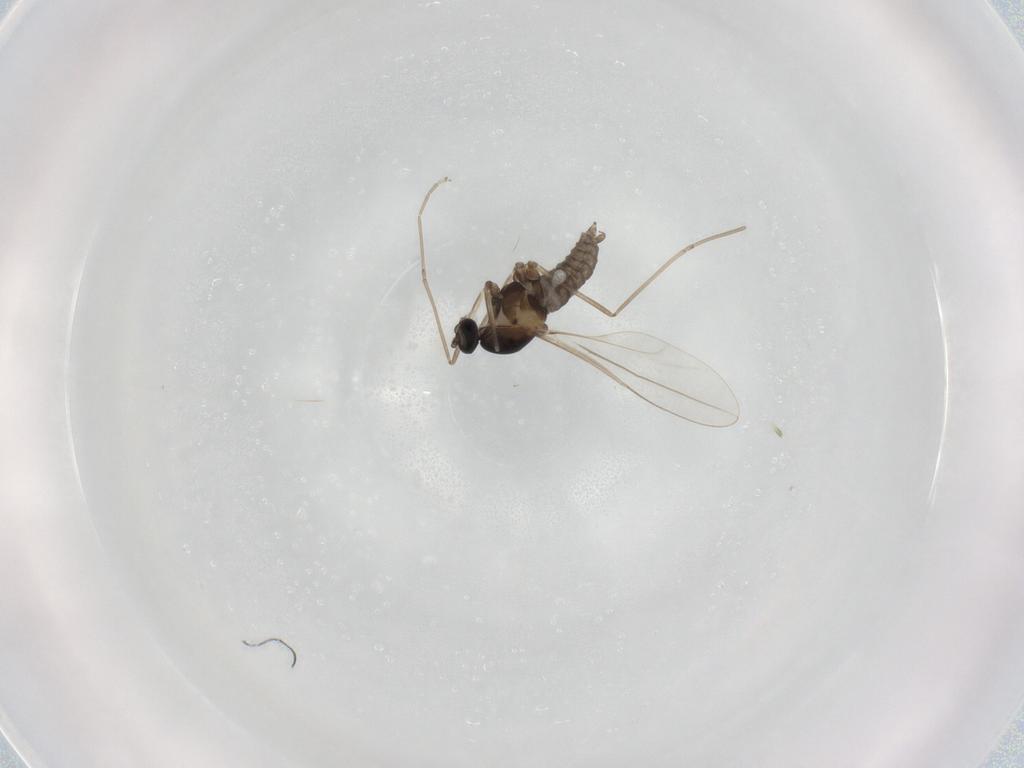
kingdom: Animalia
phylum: Arthropoda
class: Insecta
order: Diptera
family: Cecidomyiidae
